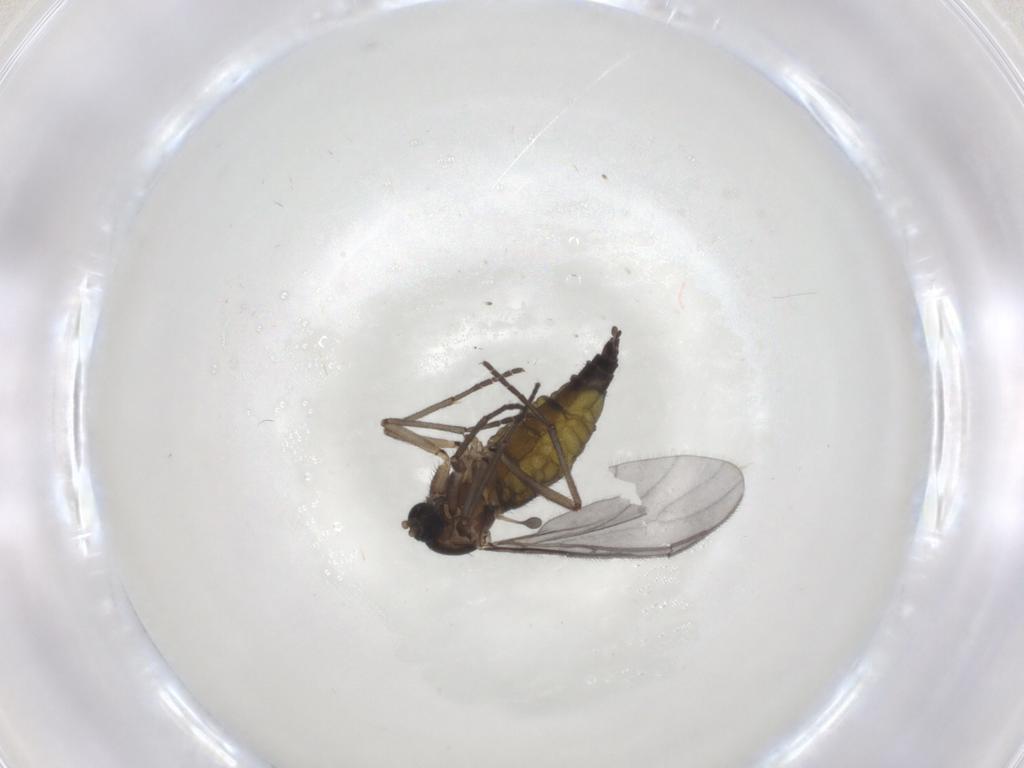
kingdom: Animalia
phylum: Arthropoda
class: Insecta
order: Diptera
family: Sciaridae
